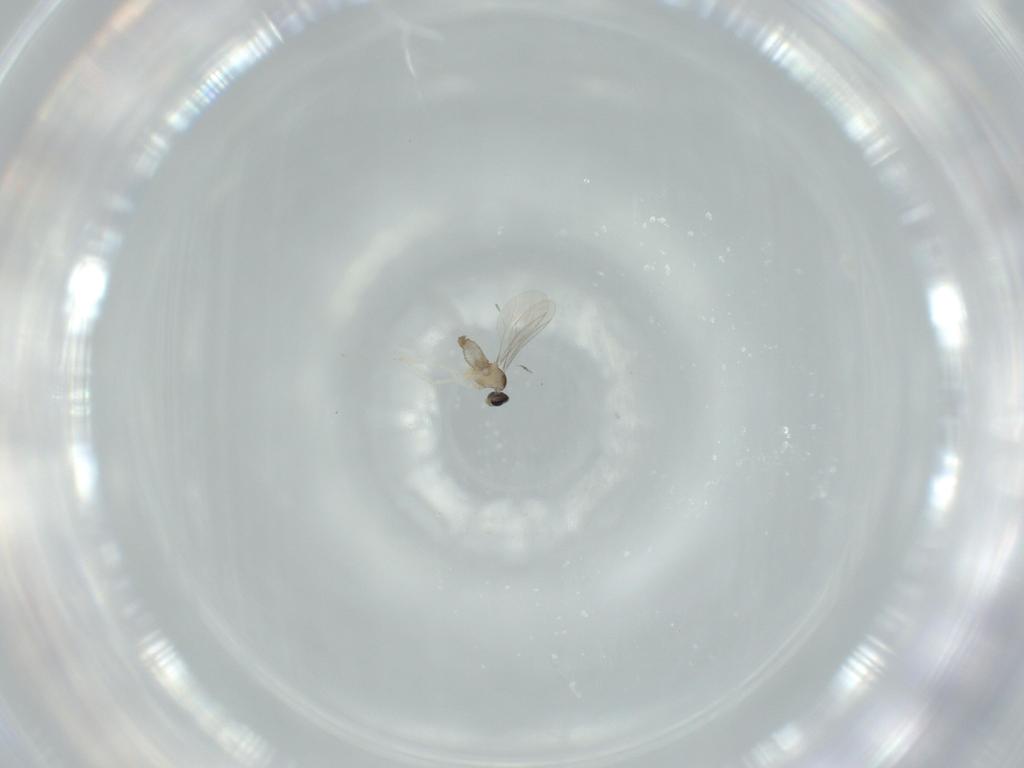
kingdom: Animalia
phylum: Arthropoda
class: Insecta
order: Diptera
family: Cecidomyiidae
